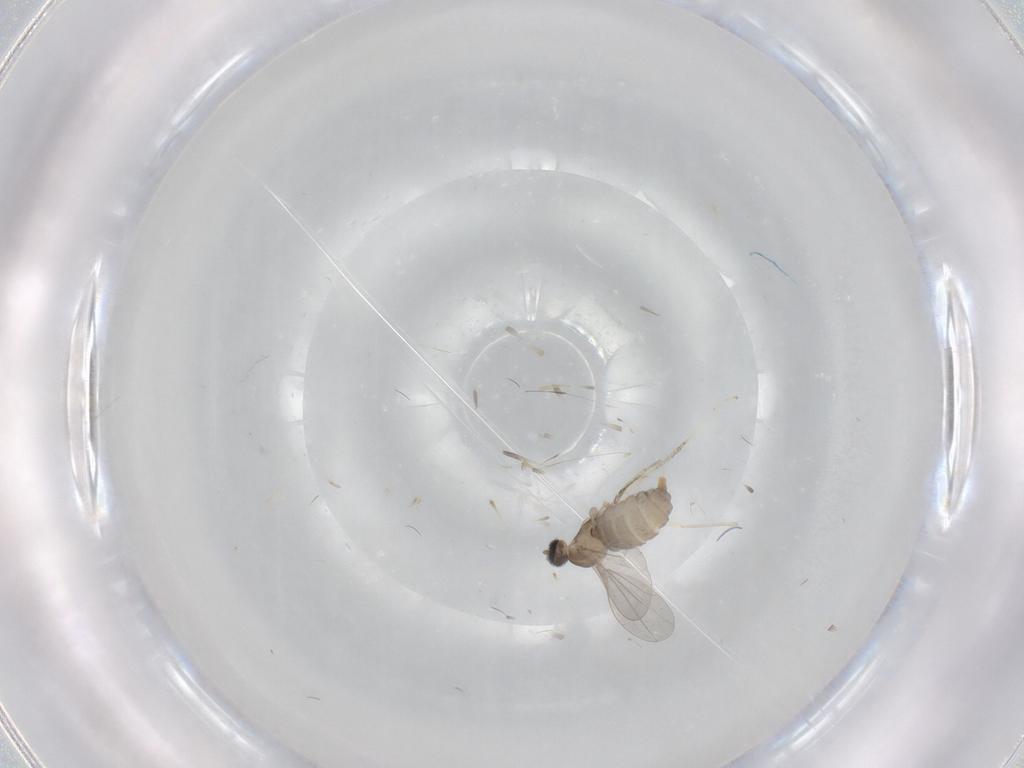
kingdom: Animalia
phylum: Arthropoda
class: Insecta
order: Diptera
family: Cecidomyiidae
